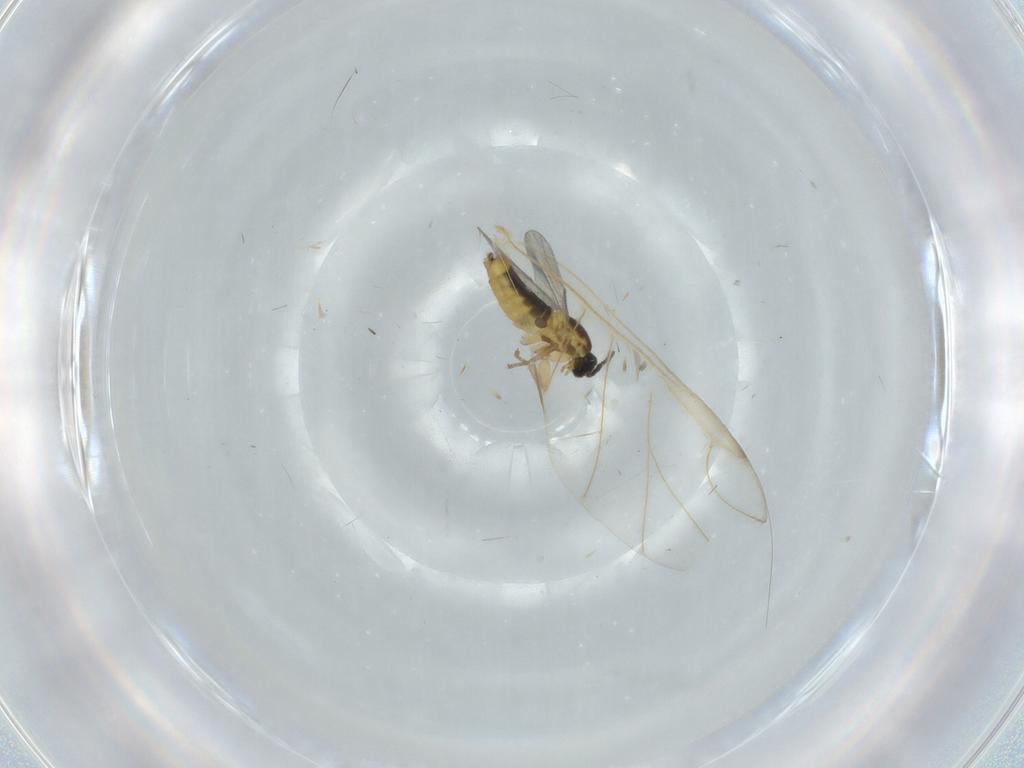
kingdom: Animalia
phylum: Arthropoda
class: Insecta
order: Diptera
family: Scatopsidae
